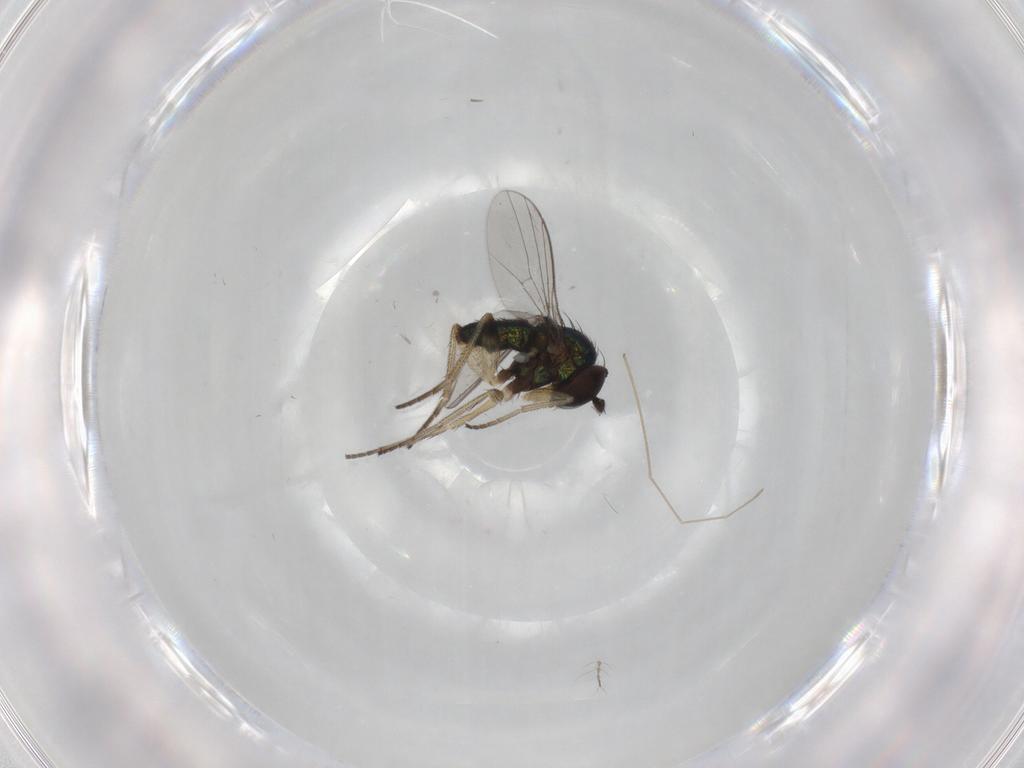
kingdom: Animalia
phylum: Arthropoda
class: Insecta
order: Diptera
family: Chironomidae
